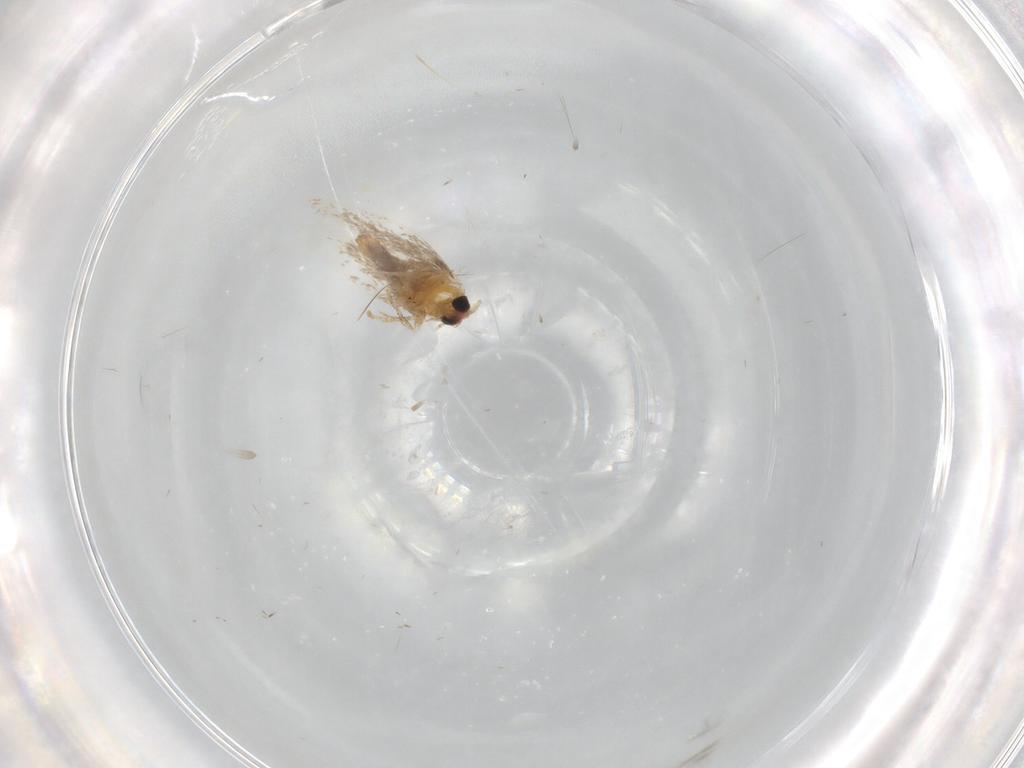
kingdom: Animalia
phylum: Arthropoda
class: Insecta
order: Lepidoptera
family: Nepticulidae
